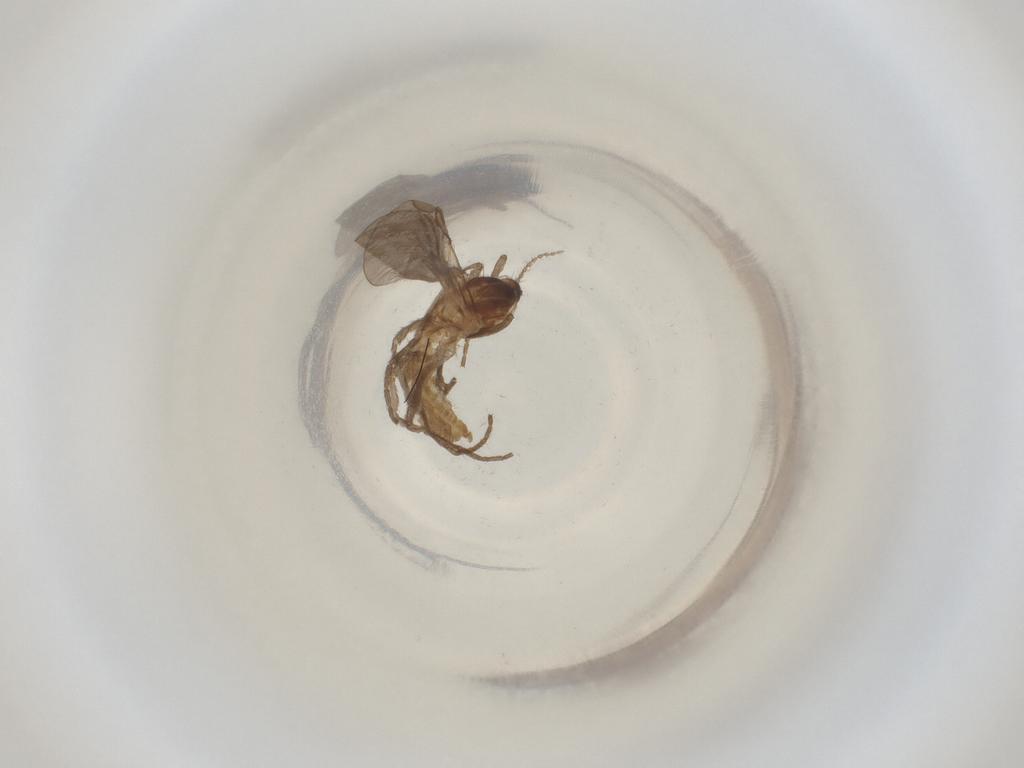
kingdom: Animalia
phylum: Arthropoda
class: Insecta
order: Diptera
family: Cecidomyiidae
